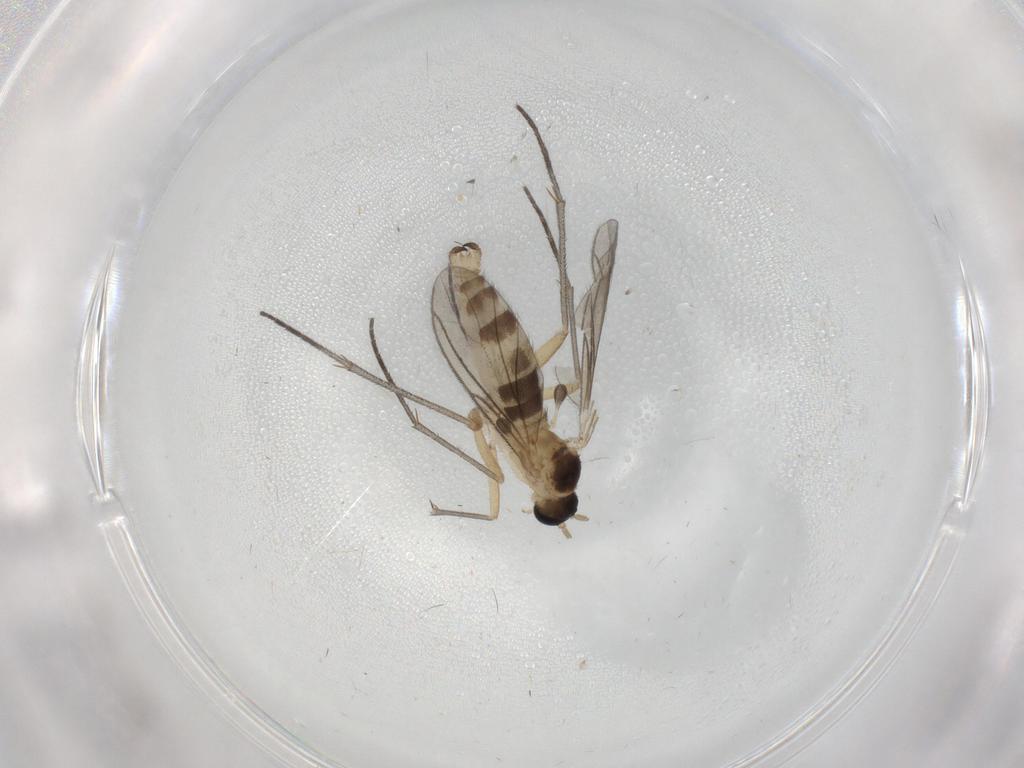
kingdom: Animalia
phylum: Arthropoda
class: Insecta
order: Diptera
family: Sciaridae
